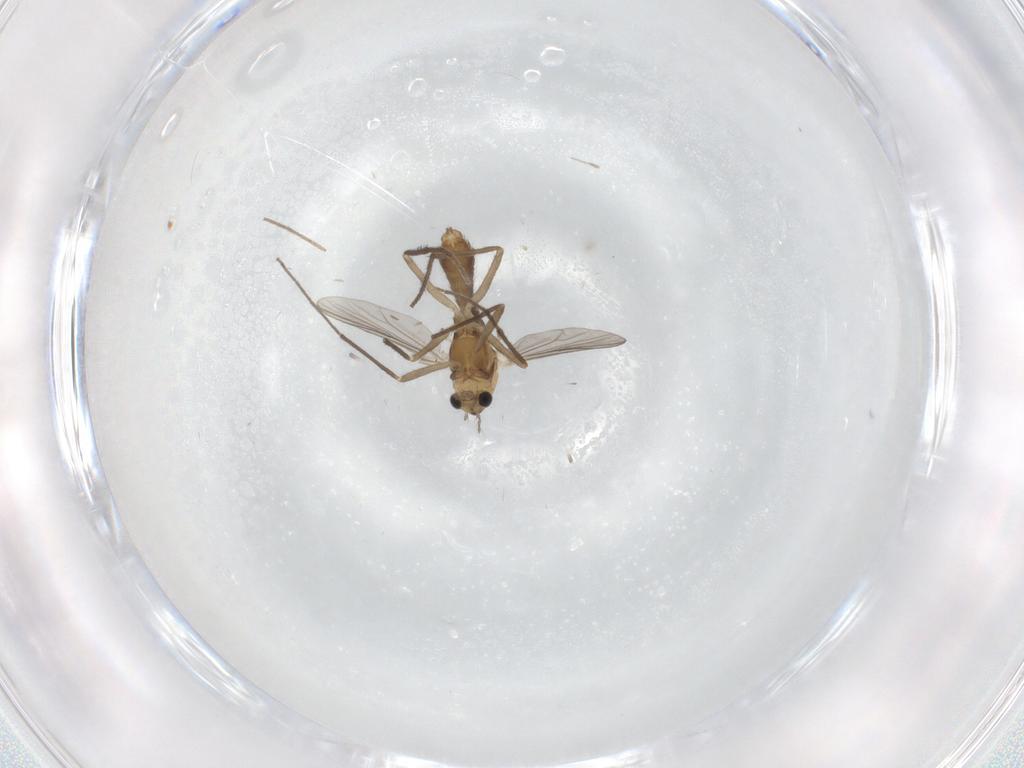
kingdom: Animalia
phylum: Arthropoda
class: Insecta
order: Diptera
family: Chironomidae
